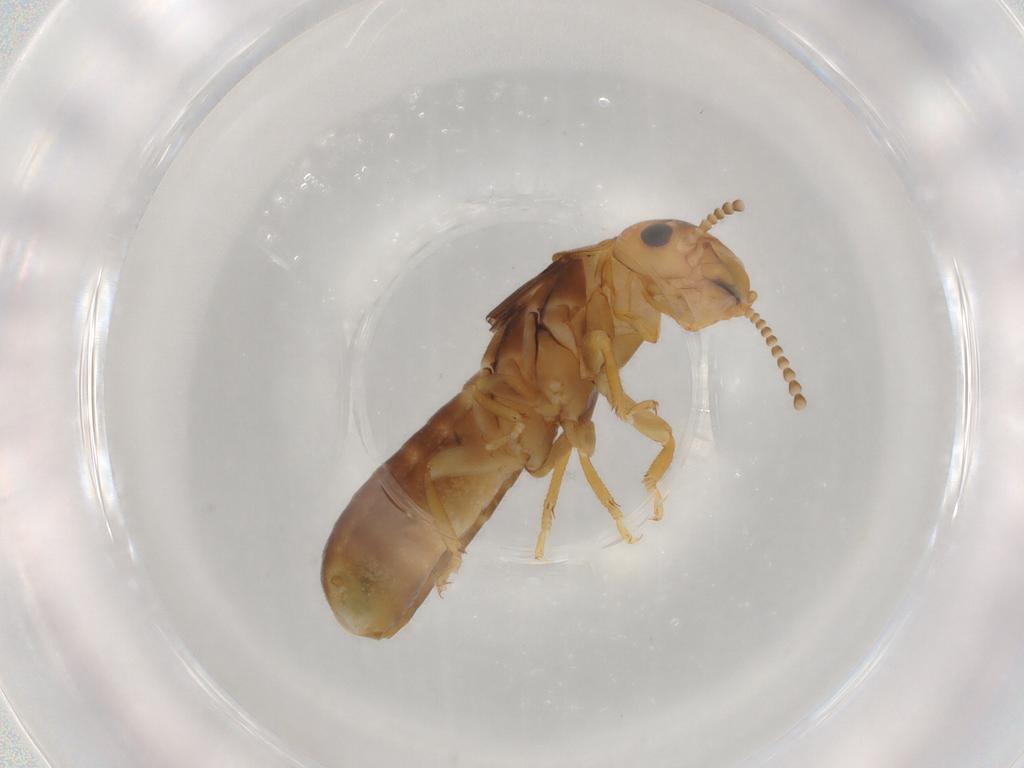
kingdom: Animalia
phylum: Arthropoda
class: Insecta
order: Blattodea
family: Kalotermitidae
